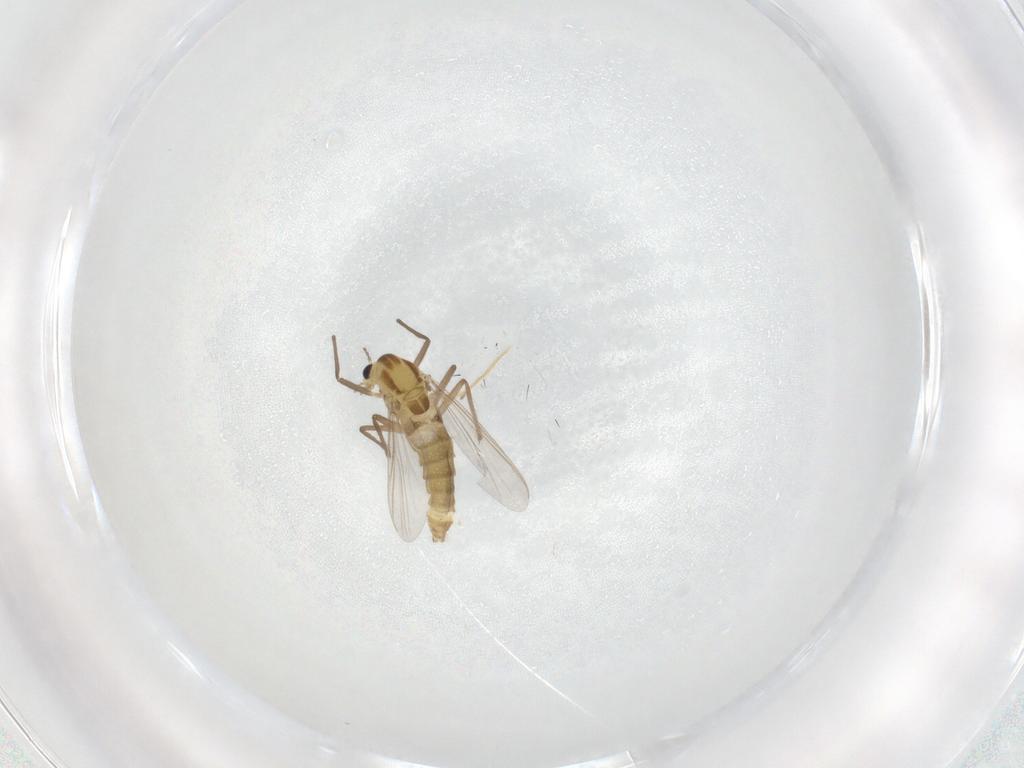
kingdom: Animalia
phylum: Arthropoda
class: Insecta
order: Diptera
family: Chironomidae
